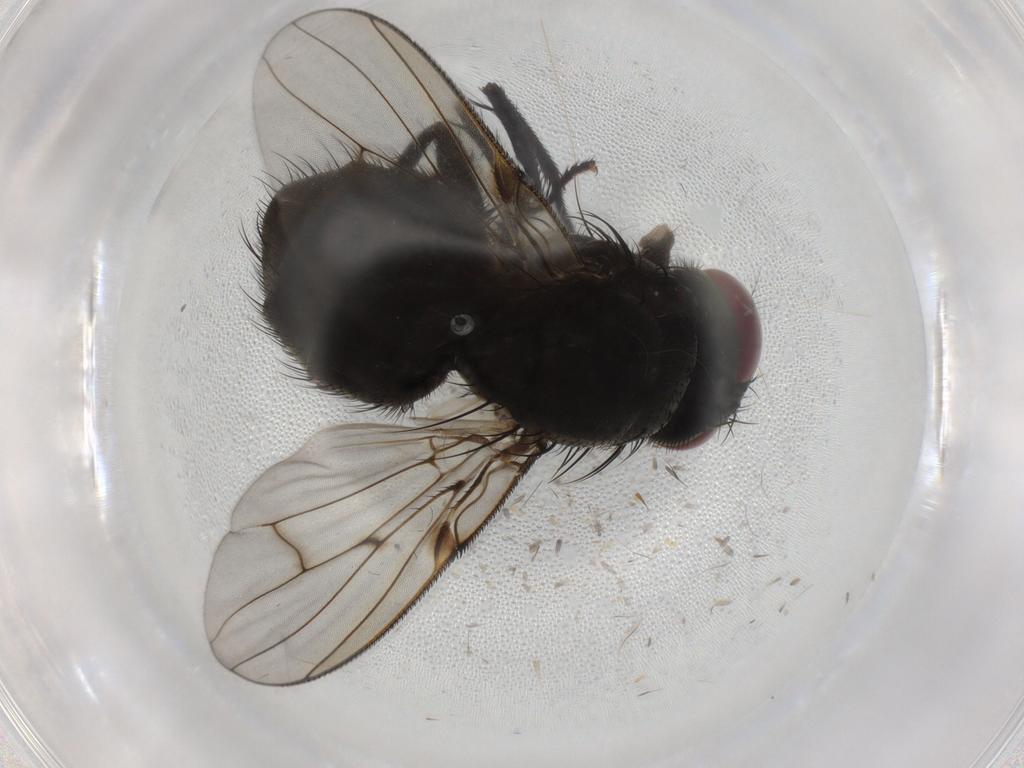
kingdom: Animalia
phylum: Arthropoda
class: Insecta
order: Diptera
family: Muscidae
